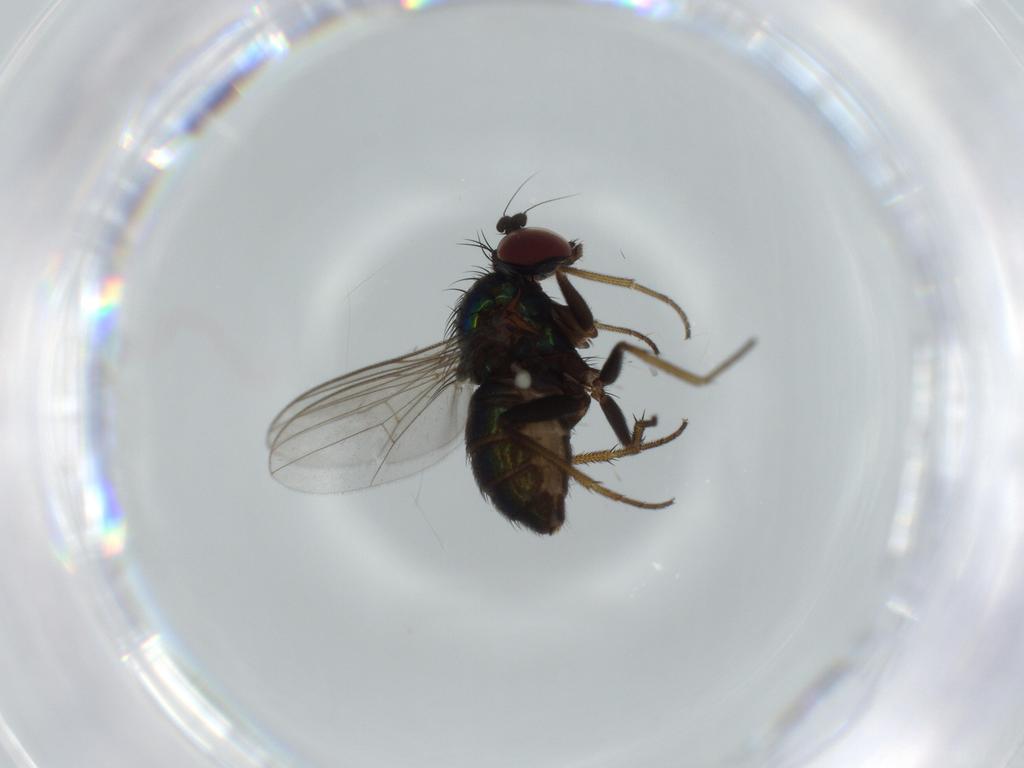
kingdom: Animalia
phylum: Arthropoda
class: Insecta
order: Diptera
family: Dolichopodidae
